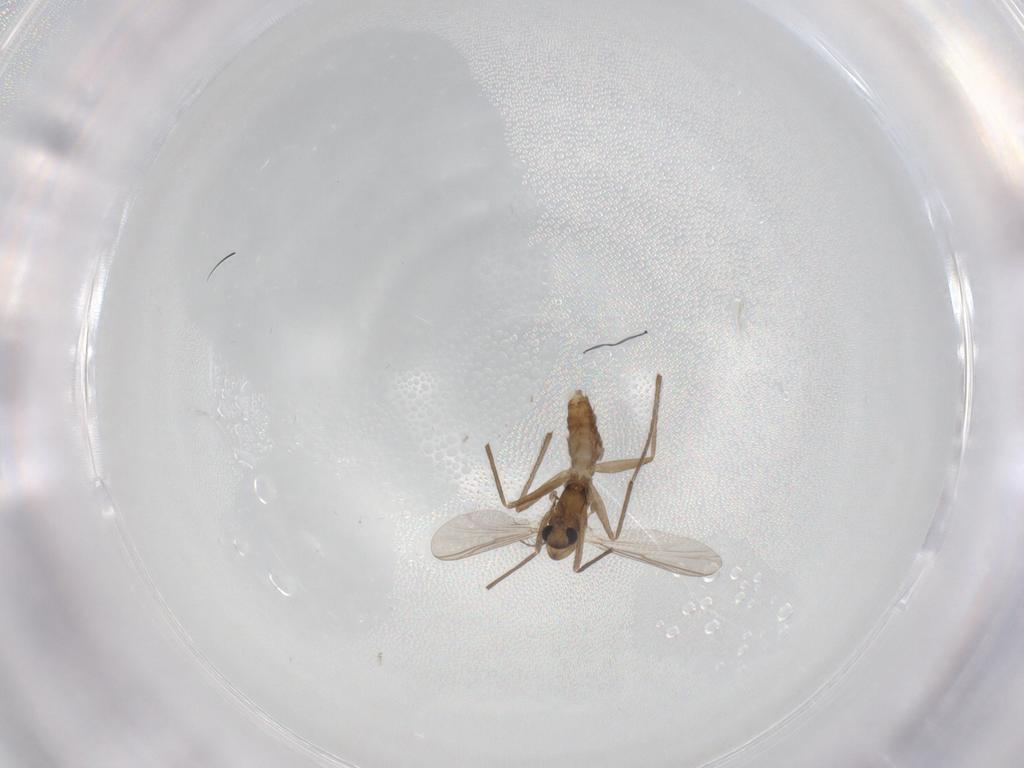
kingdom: Animalia
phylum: Arthropoda
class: Insecta
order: Diptera
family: Chironomidae
